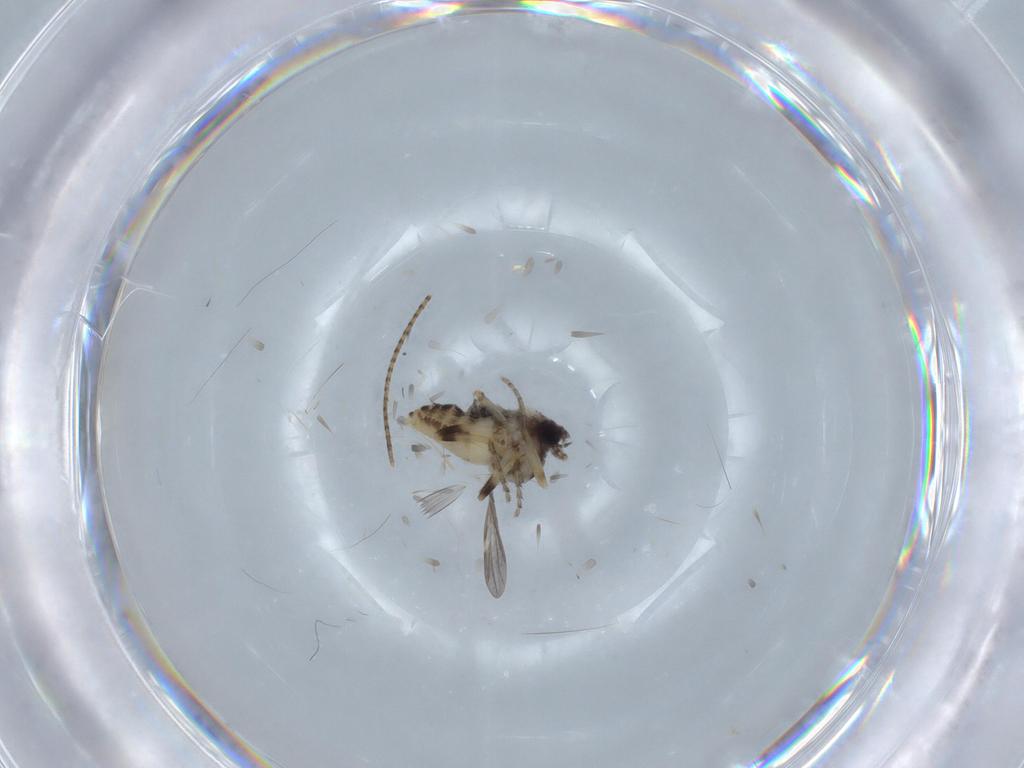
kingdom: Animalia
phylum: Arthropoda
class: Insecta
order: Diptera
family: Ceratopogonidae
